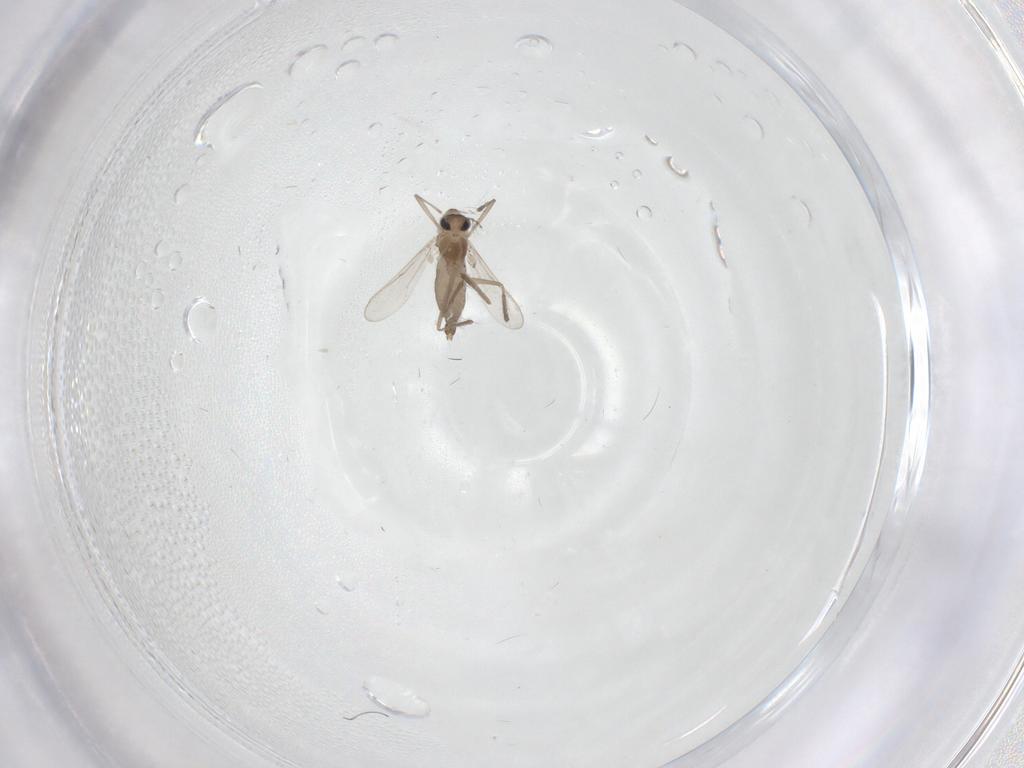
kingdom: Animalia
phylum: Arthropoda
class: Insecta
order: Diptera
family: Chironomidae
